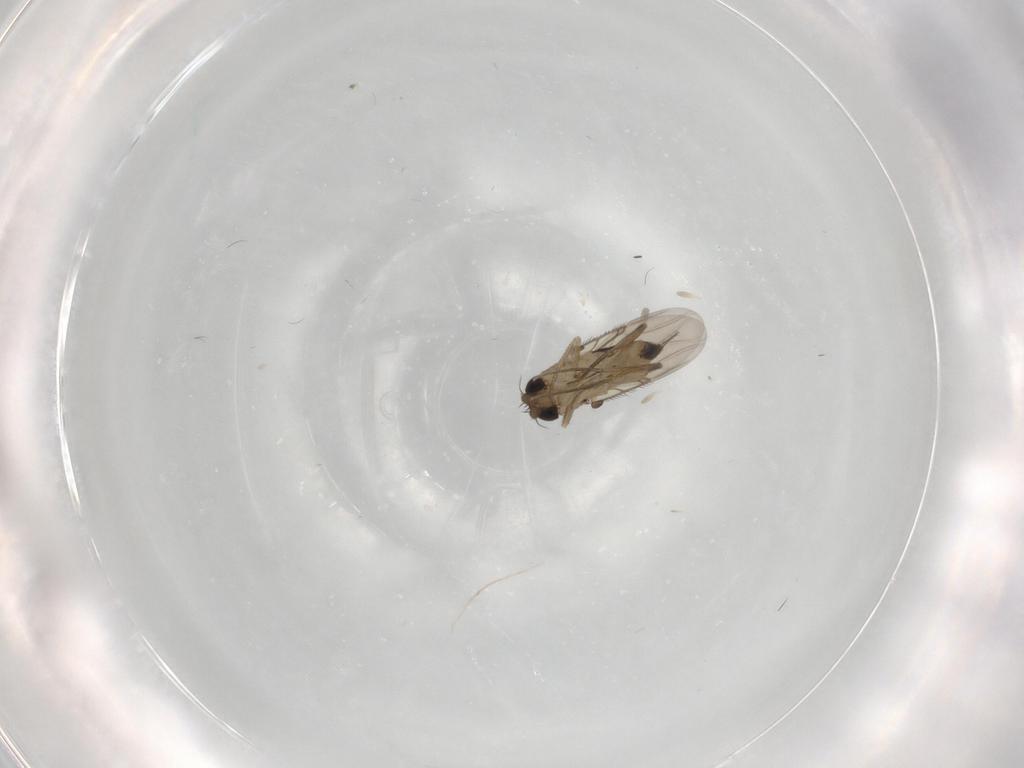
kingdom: Animalia
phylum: Arthropoda
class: Insecta
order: Diptera
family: Phoridae
